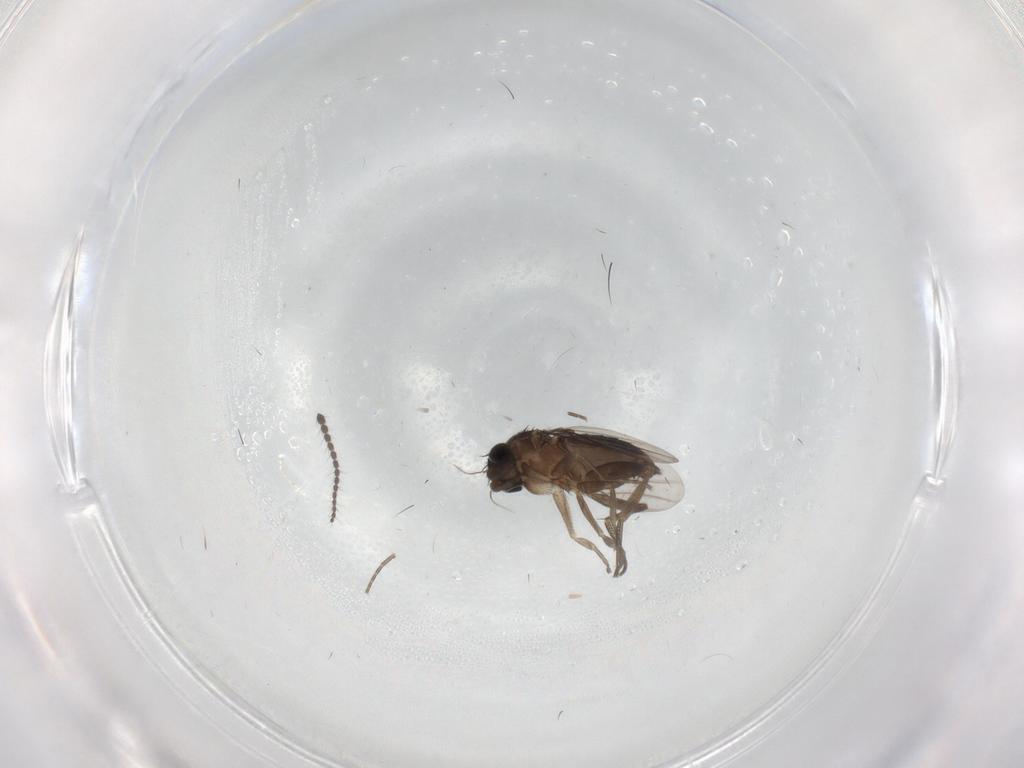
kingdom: Animalia
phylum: Arthropoda
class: Insecta
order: Diptera
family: Phoridae
